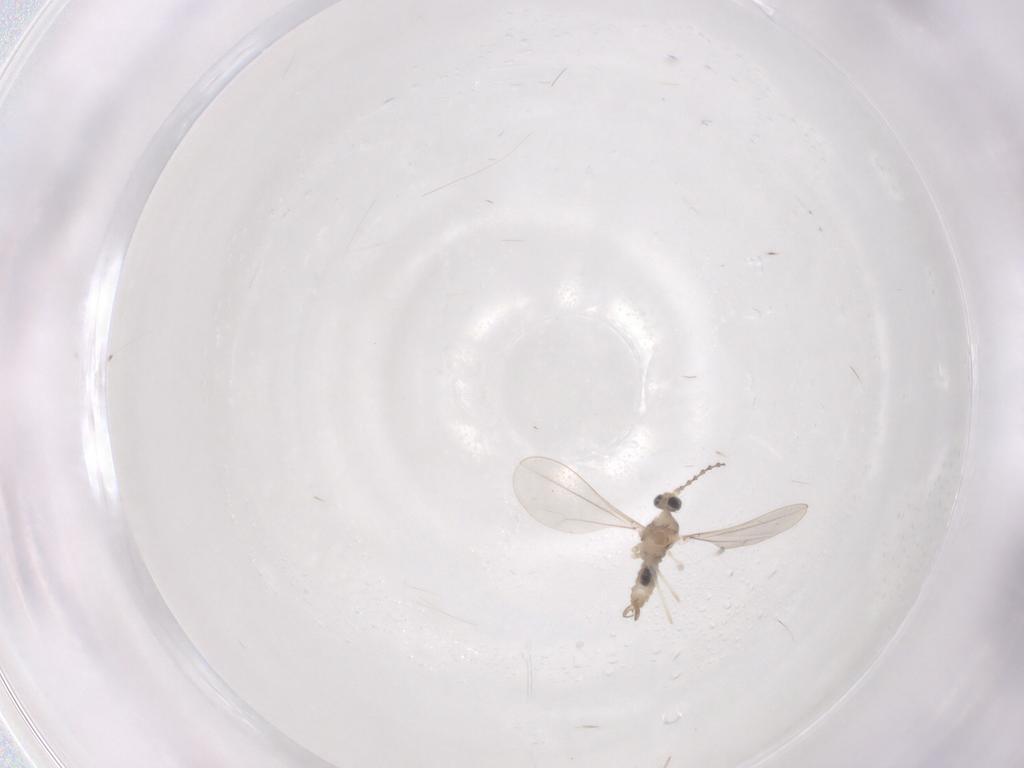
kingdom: Animalia
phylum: Arthropoda
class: Insecta
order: Diptera
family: Cecidomyiidae
